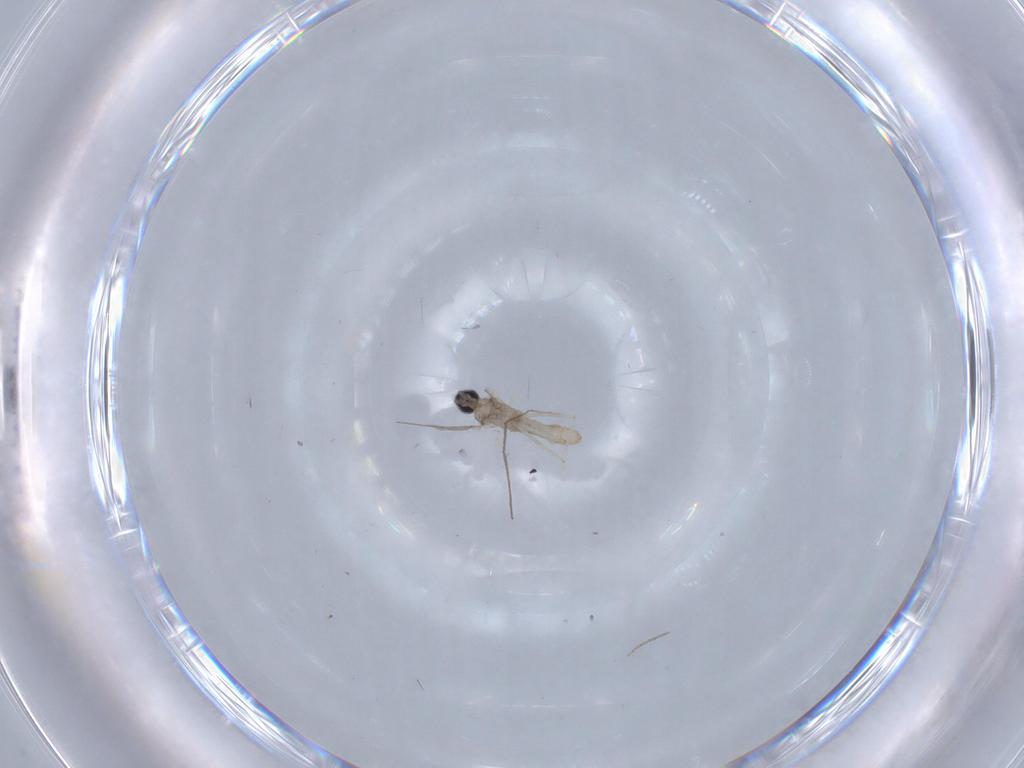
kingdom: Animalia
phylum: Arthropoda
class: Insecta
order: Diptera
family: Cecidomyiidae
